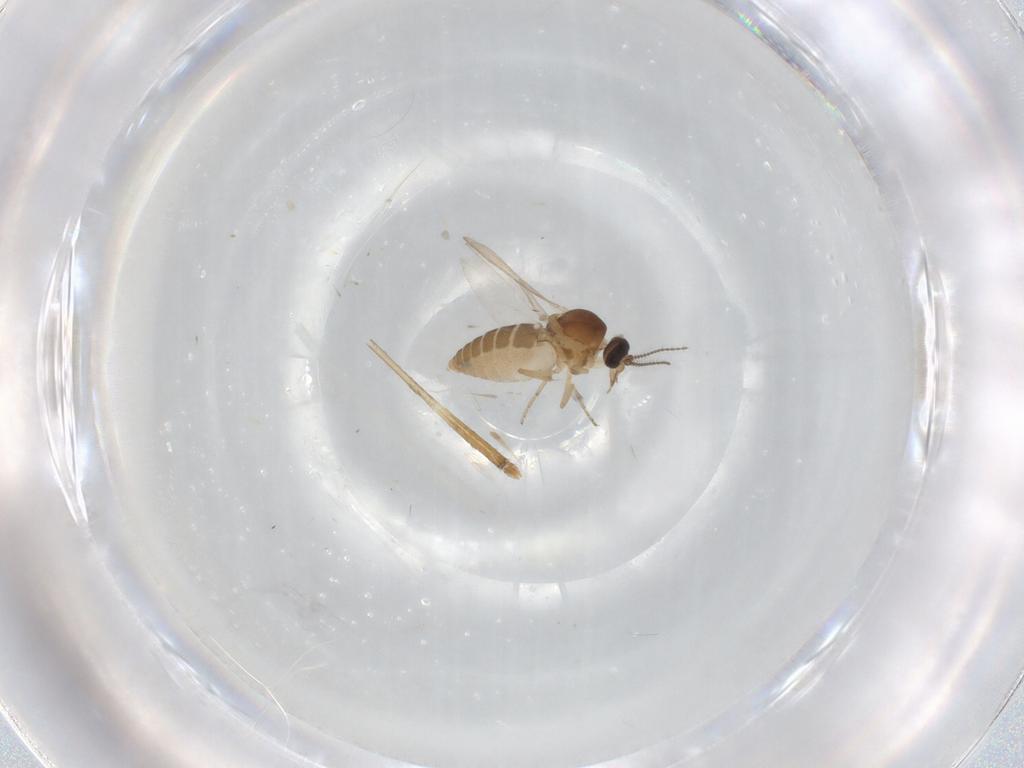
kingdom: Animalia
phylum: Arthropoda
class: Insecta
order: Diptera
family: Culicidae
